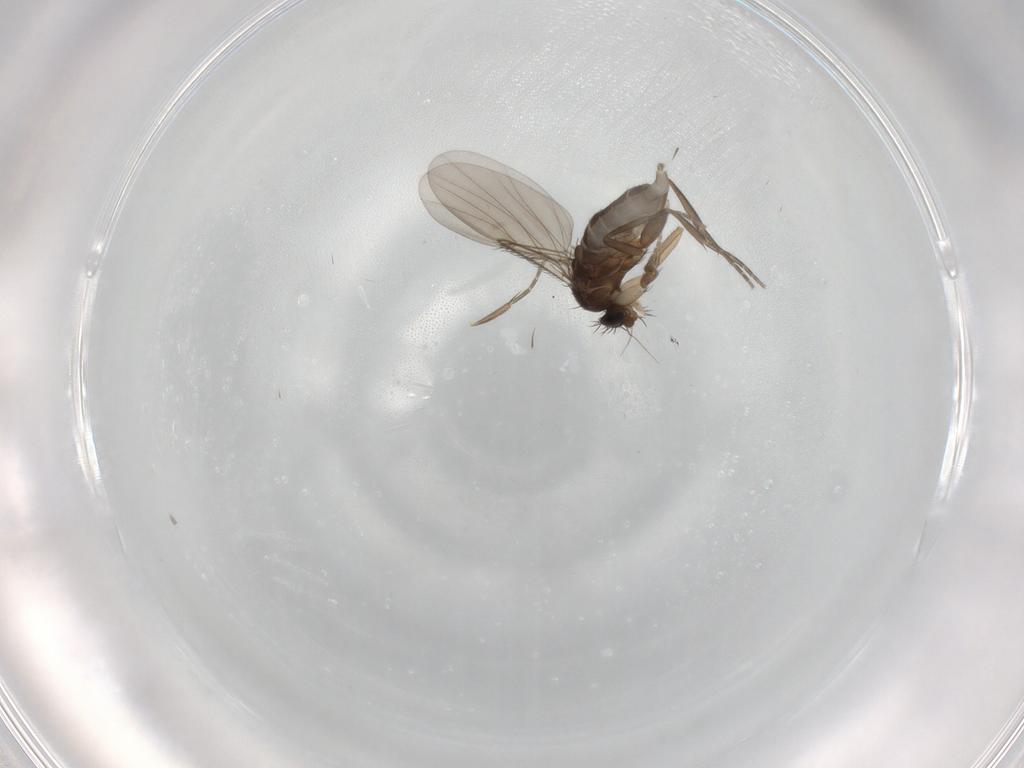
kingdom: Animalia
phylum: Arthropoda
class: Insecta
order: Diptera
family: Phoridae
